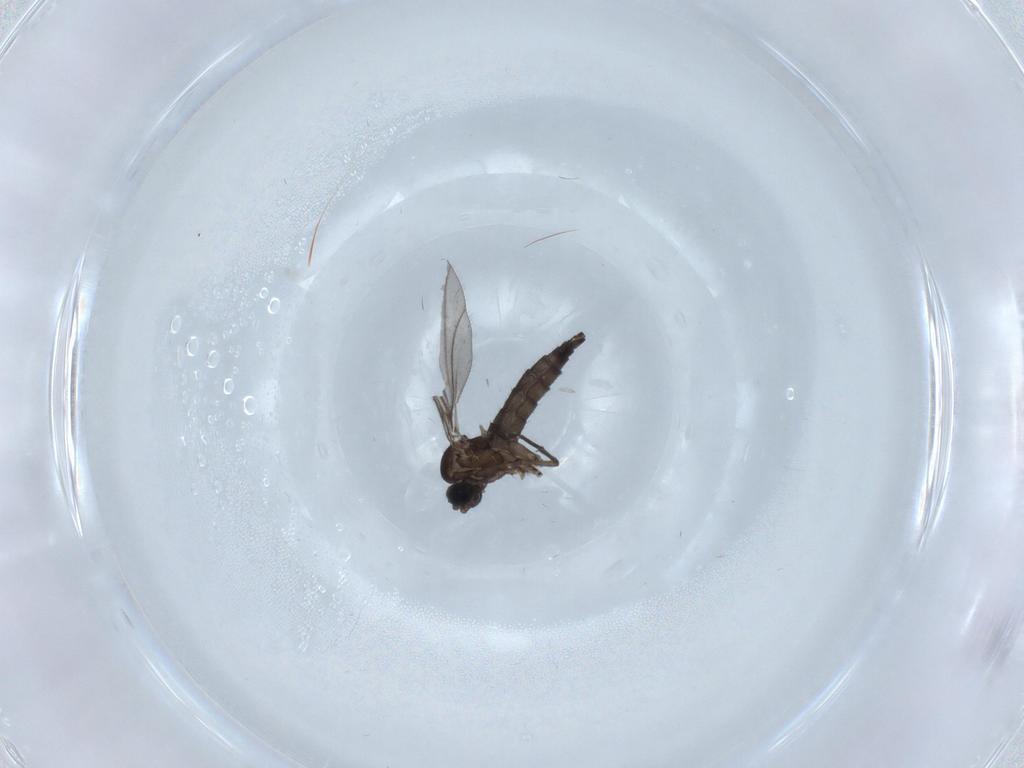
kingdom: Animalia
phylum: Arthropoda
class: Insecta
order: Diptera
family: Sciaridae
